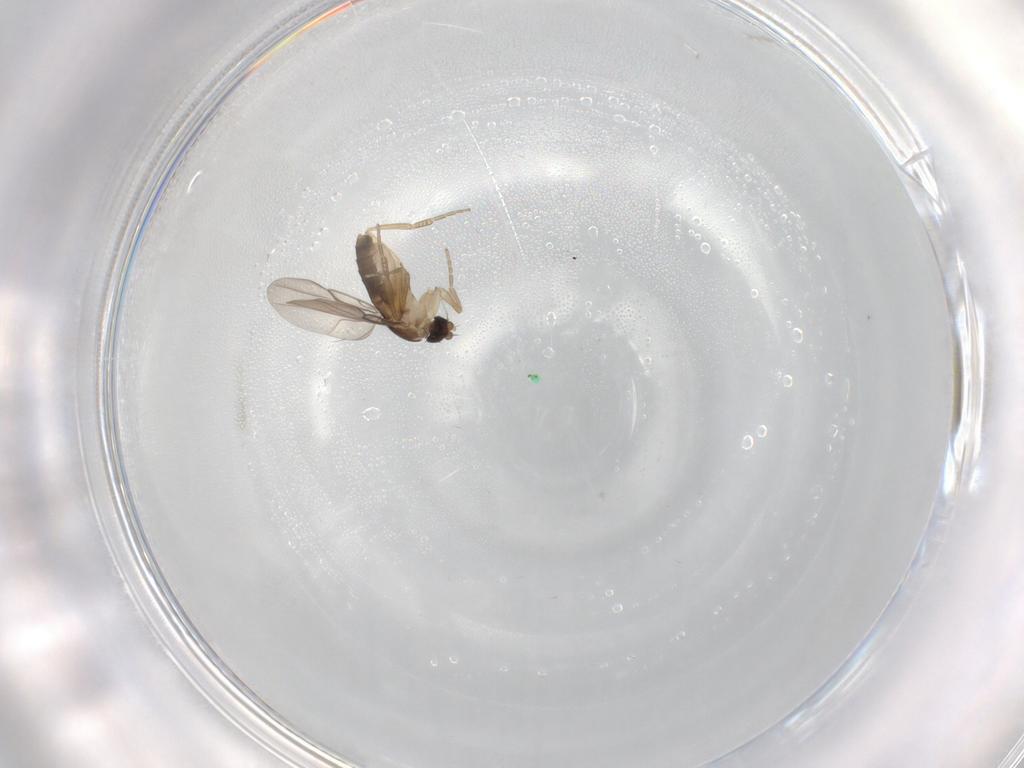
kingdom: Animalia
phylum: Arthropoda
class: Insecta
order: Diptera
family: Phoridae
